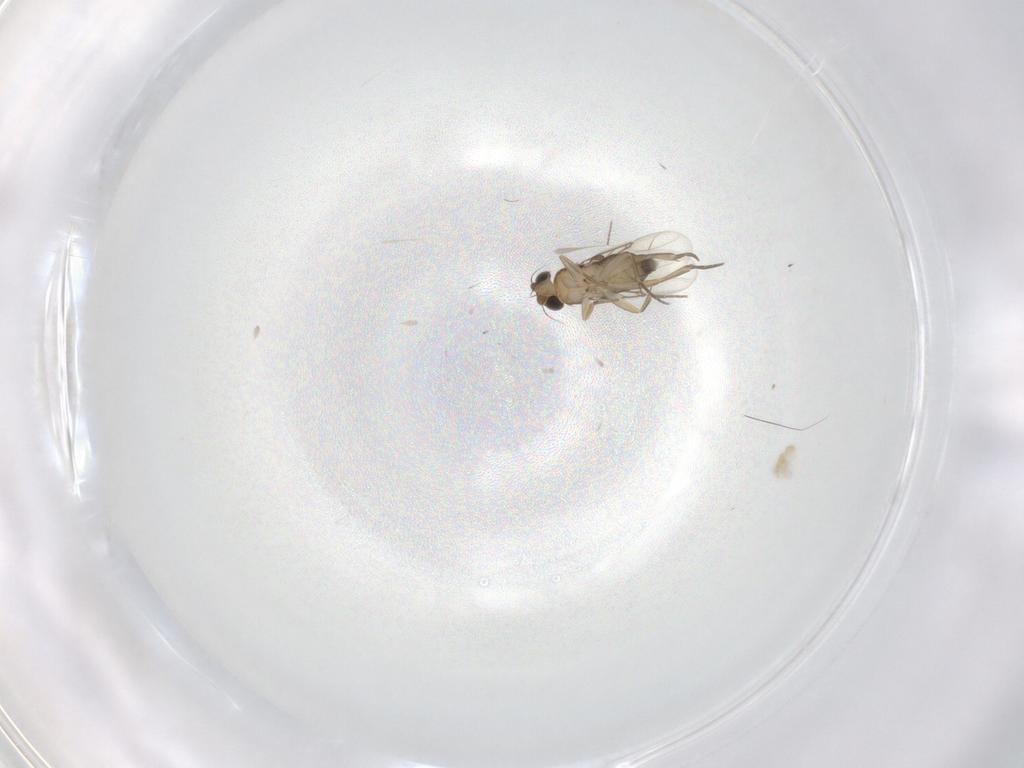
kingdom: Animalia
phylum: Arthropoda
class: Insecta
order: Diptera
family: Phoridae
